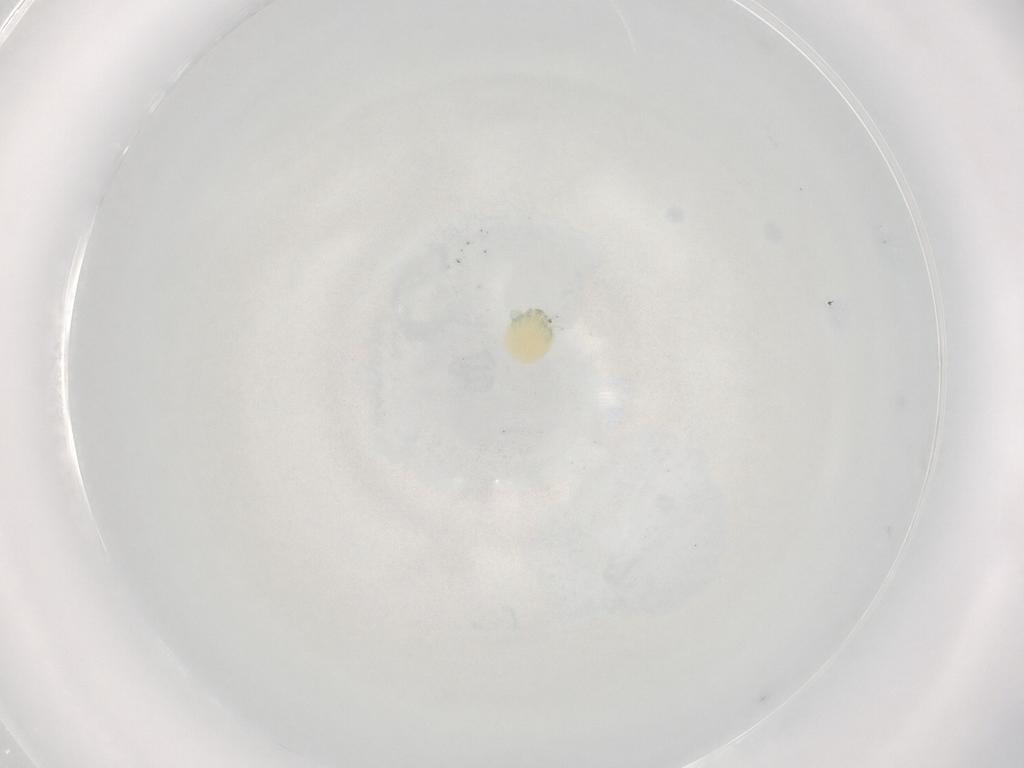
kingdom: Animalia
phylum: Arthropoda
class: Arachnida
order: Trombidiformes
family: Arrenuridae
